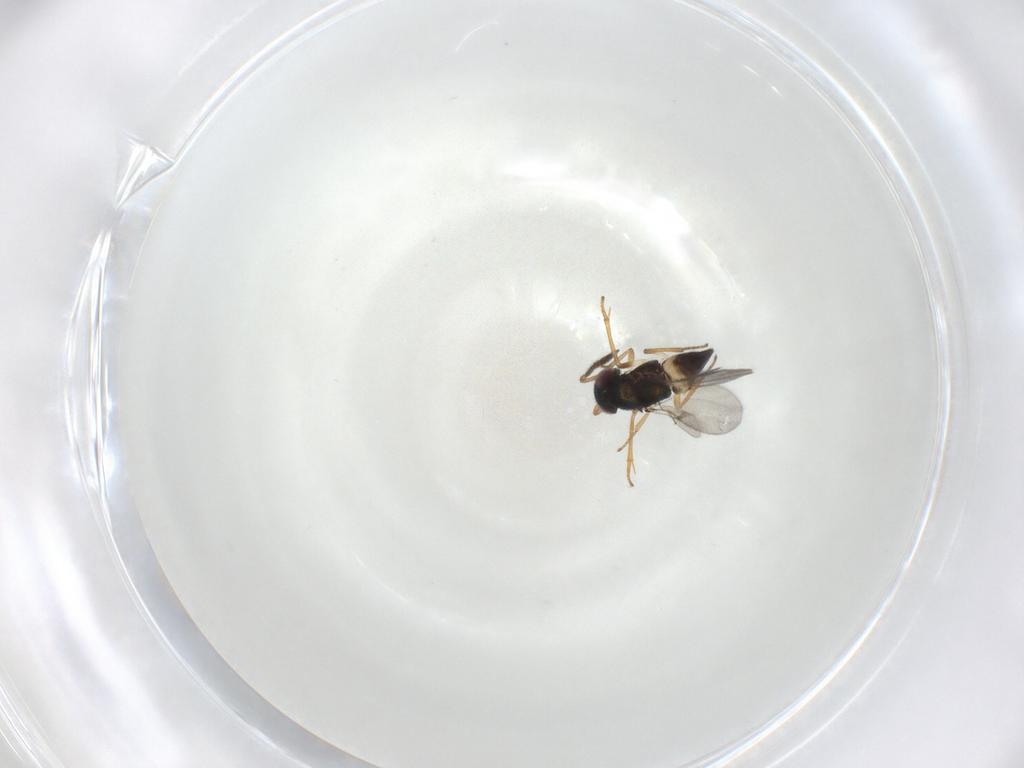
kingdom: Animalia
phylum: Arthropoda
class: Insecta
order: Hymenoptera
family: Encyrtidae
